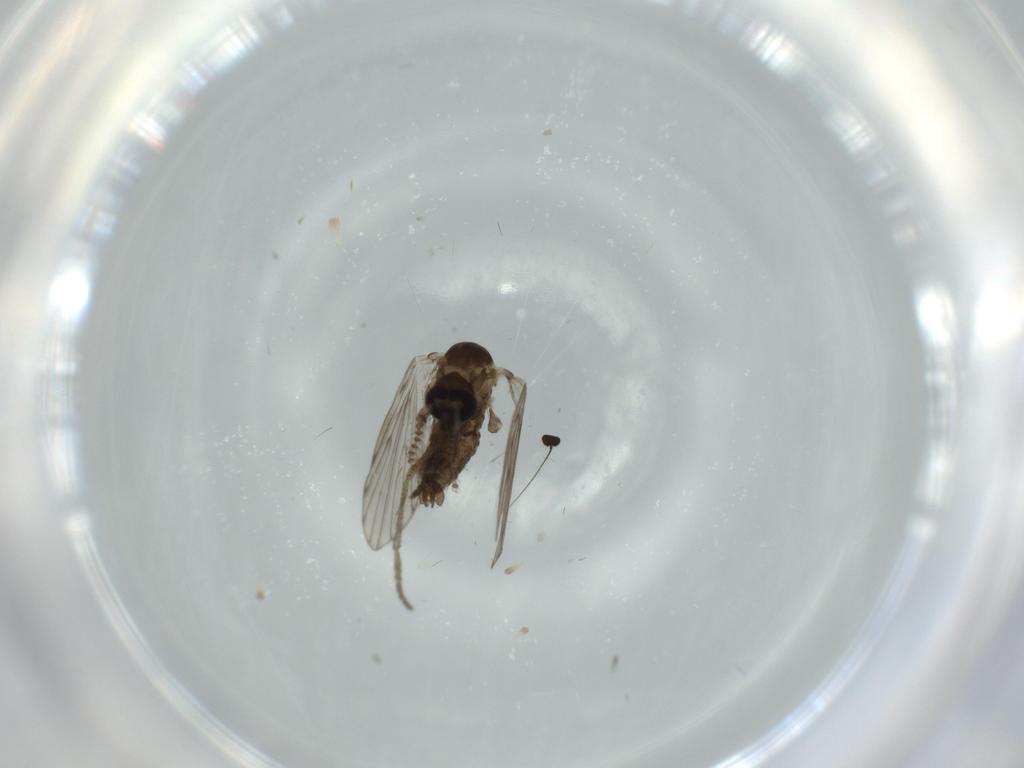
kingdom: Animalia
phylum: Arthropoda
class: Insecta
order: Diptera
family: Psychodidae
